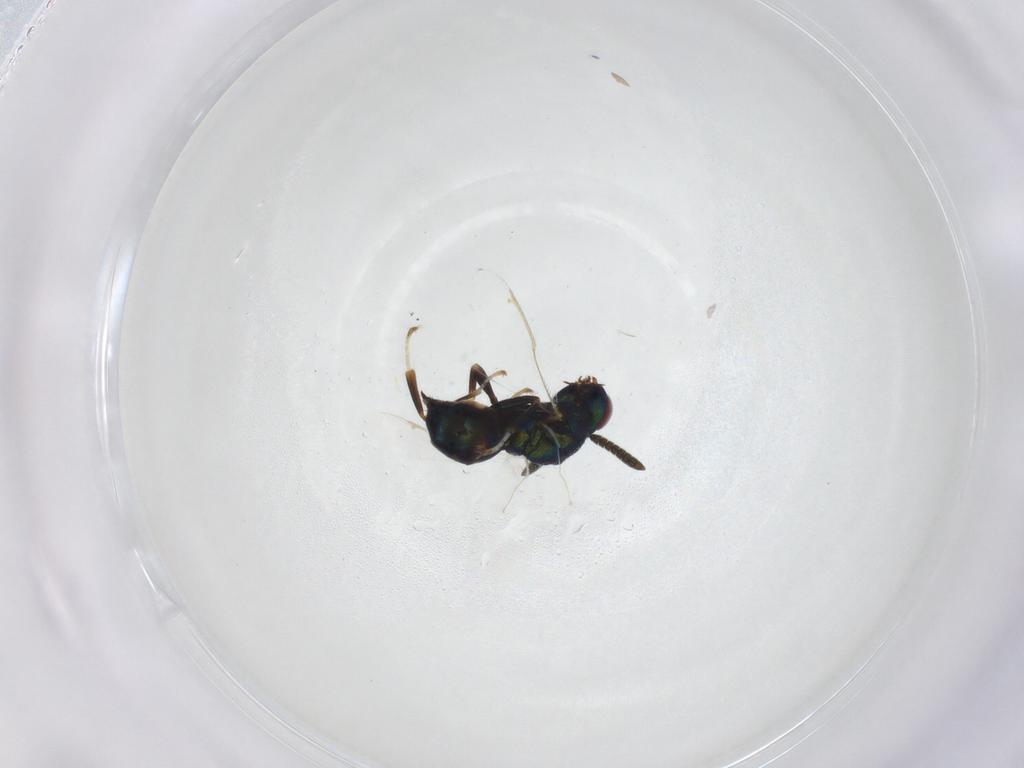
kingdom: Animalia
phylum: Arthropoda
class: Insecta
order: Hymenoptera
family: Torymidae
